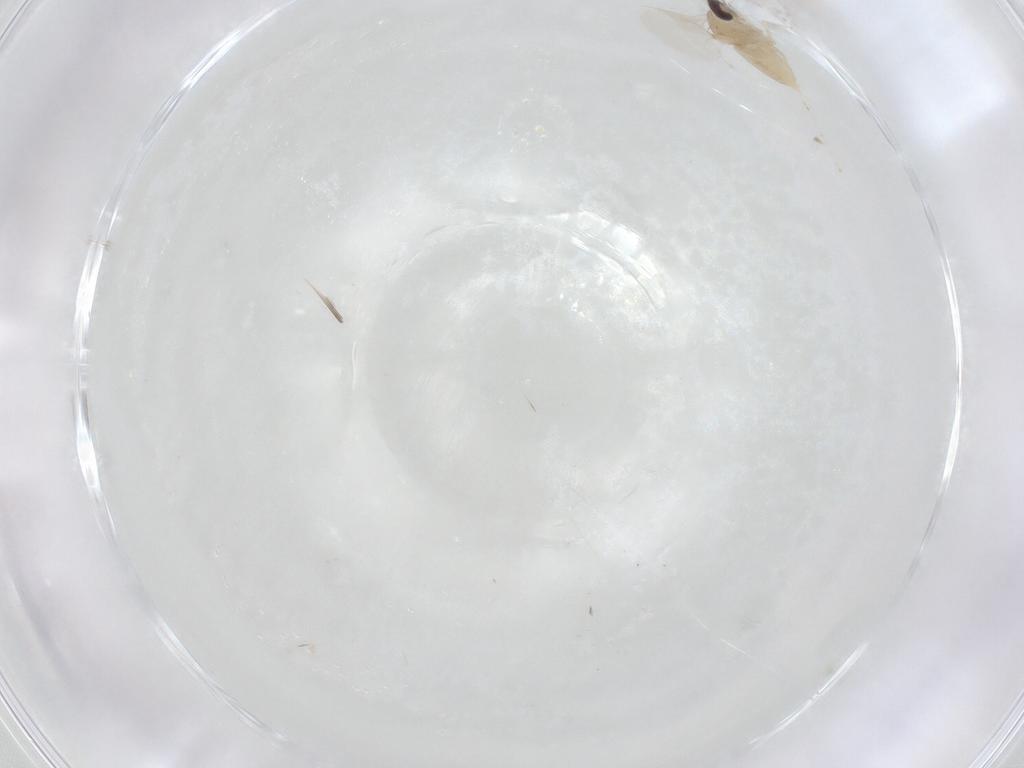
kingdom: Animalia
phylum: Arthropoda
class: Insecta
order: Diptera
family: Cecidomyiidae
